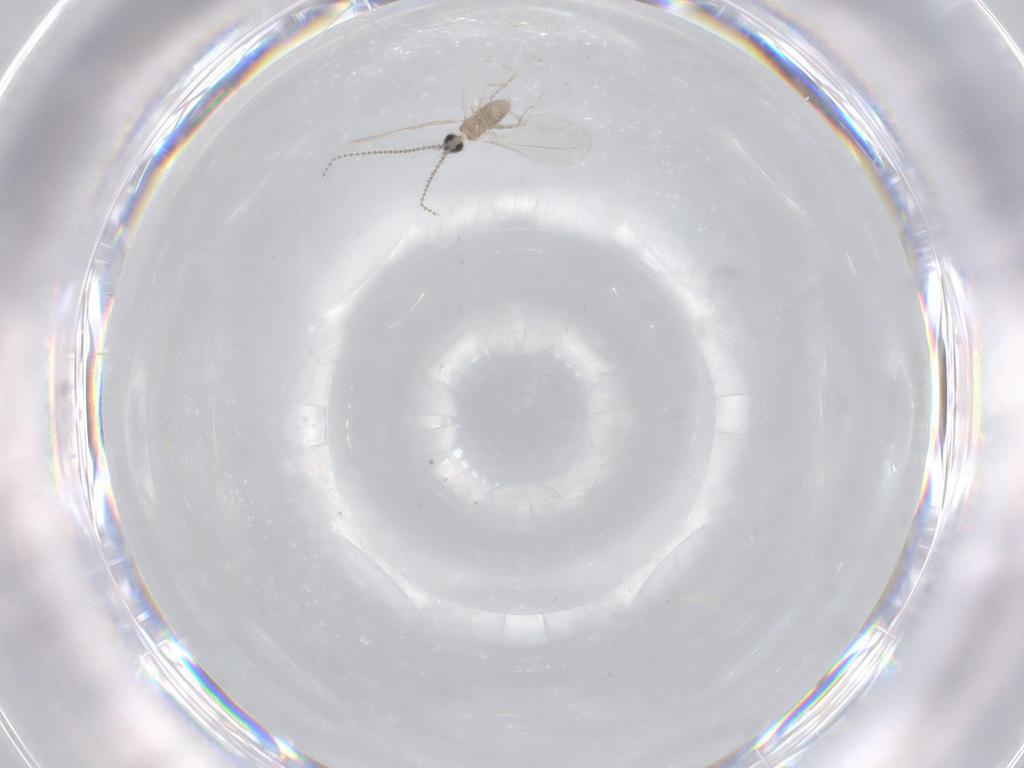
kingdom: Animalia
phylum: Arthropoda
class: Insecta
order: Diptera
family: Cecidomyiidae
